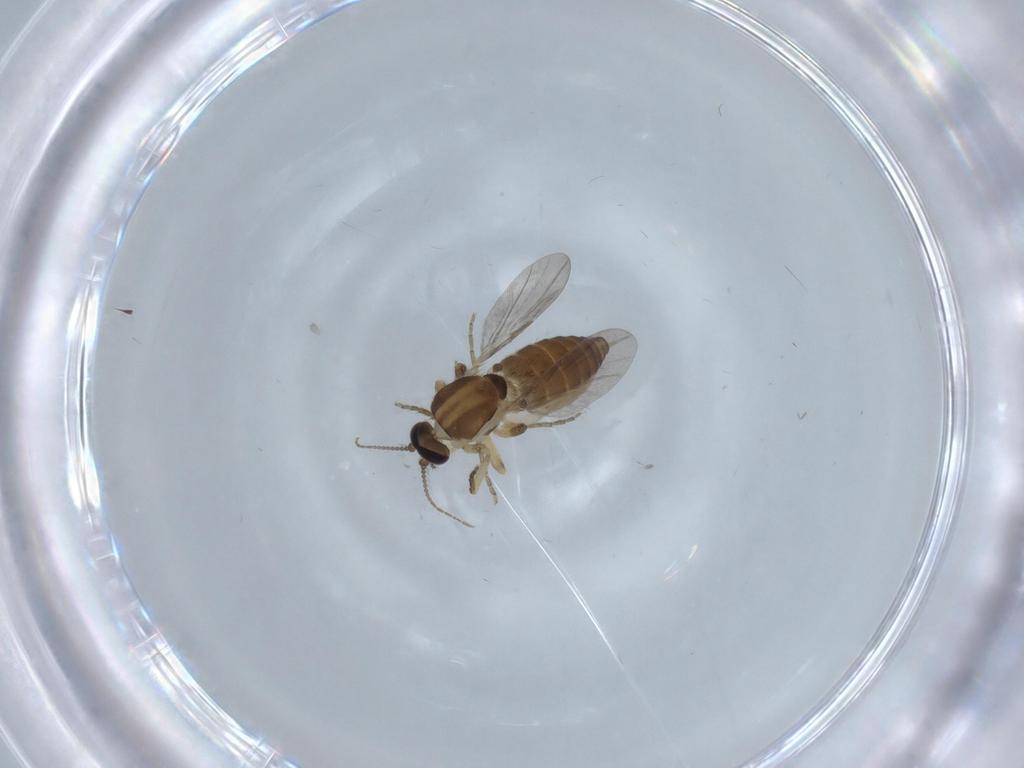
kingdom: Animalia
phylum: Arthropoda
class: Insecta
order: Diptera
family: Ceratopogonidae
